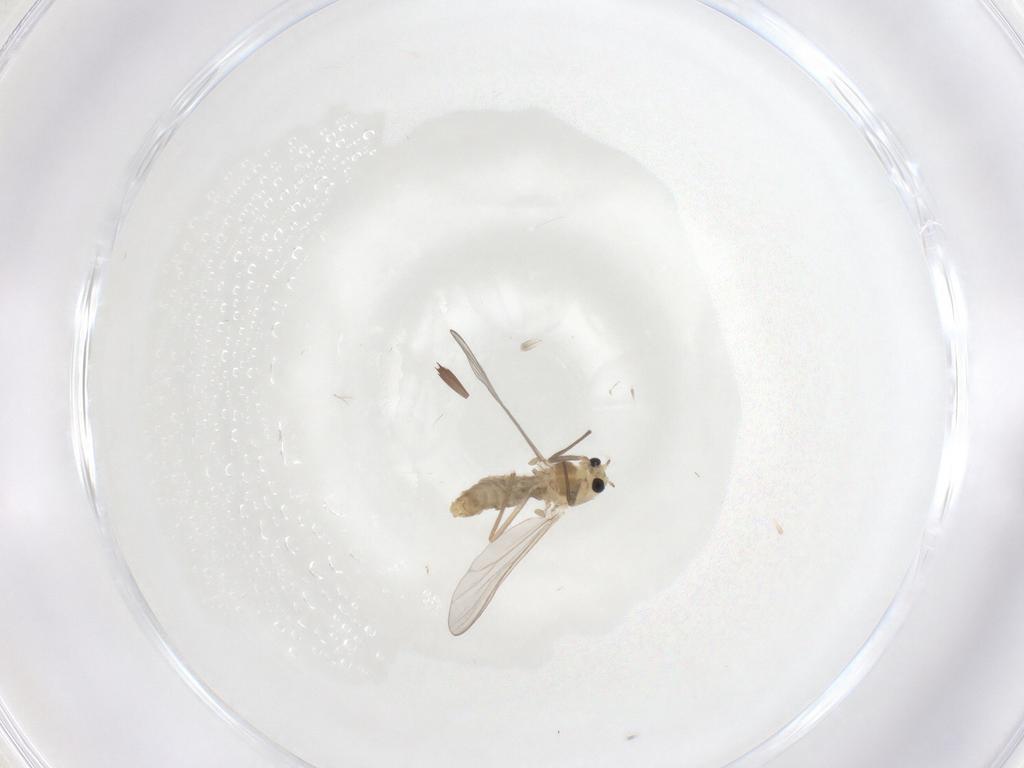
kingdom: Animalia
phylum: Arthropoda
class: Insecta
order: Diptera
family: Chironomidae
